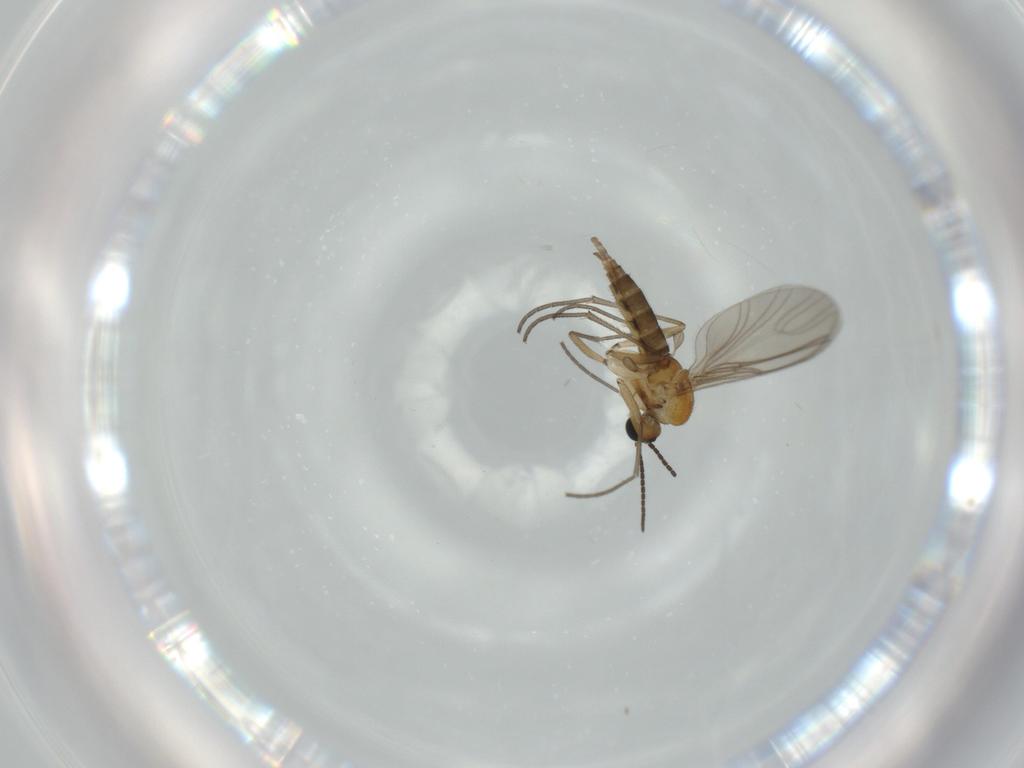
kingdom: Animalia
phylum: Arthropoda
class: Insecta
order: Diptera
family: Sciaridae
